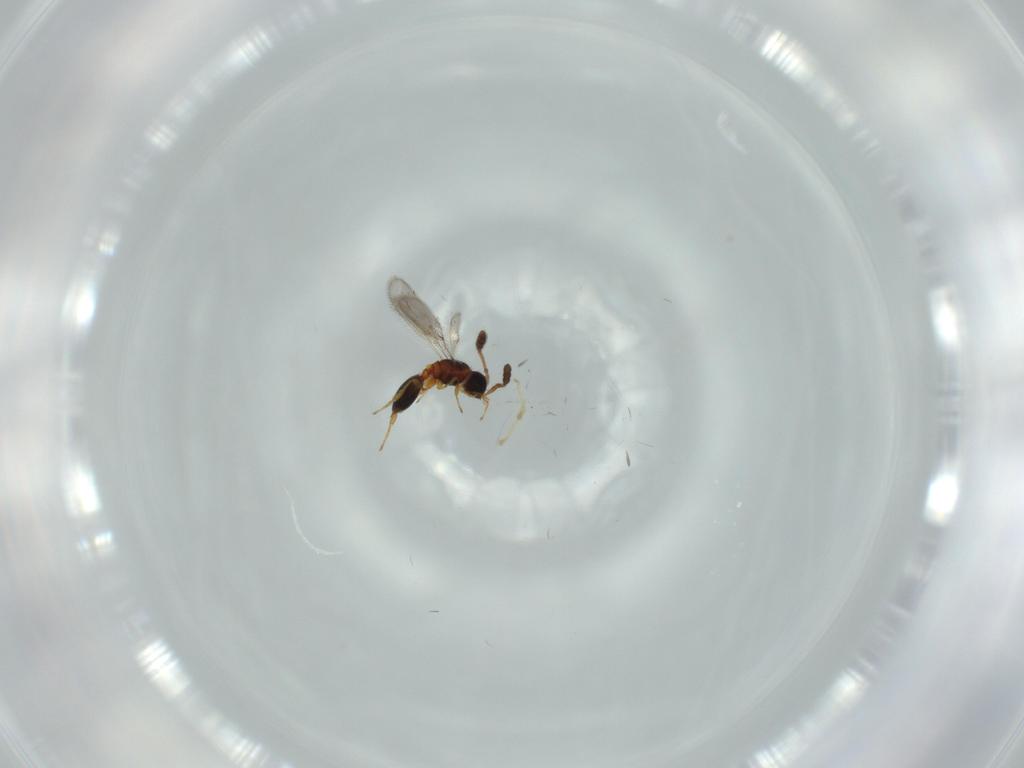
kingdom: Animalia
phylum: Arthropoda
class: Insecta
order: Hymenoptera
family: Diapriidae
